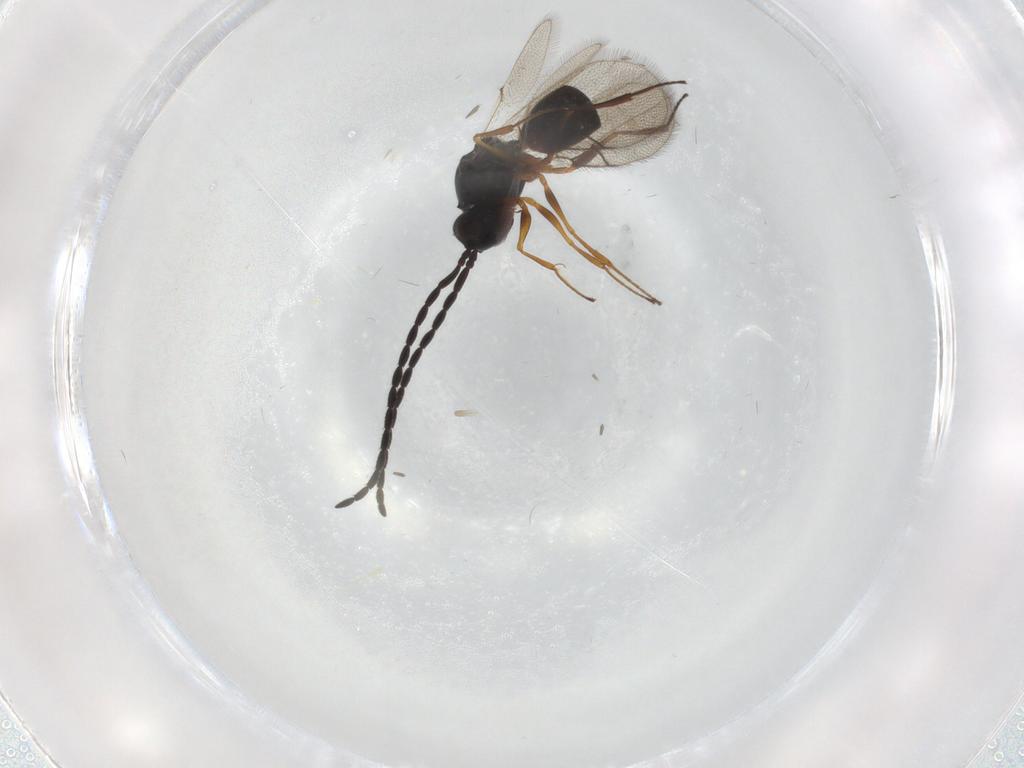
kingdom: Animalia
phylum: Arthropoda
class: Insecta
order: Hymenoptera
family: Figitidae
